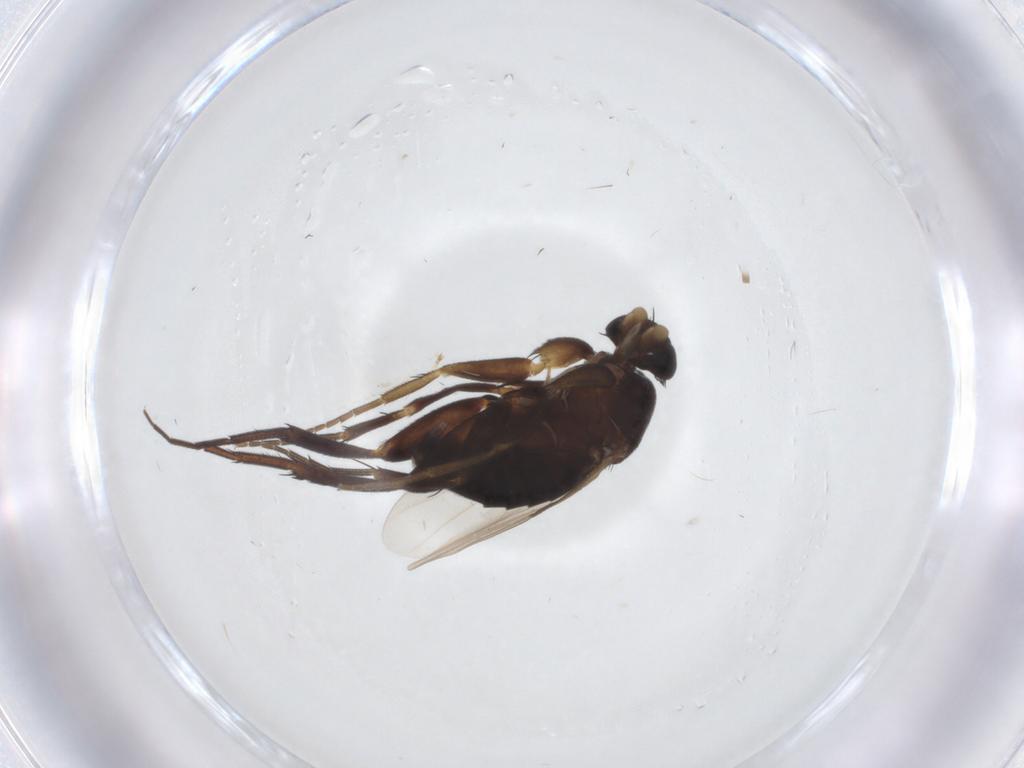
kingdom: Animalia
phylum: Arthropoda
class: Insecta
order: Diptera
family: Phoridae
